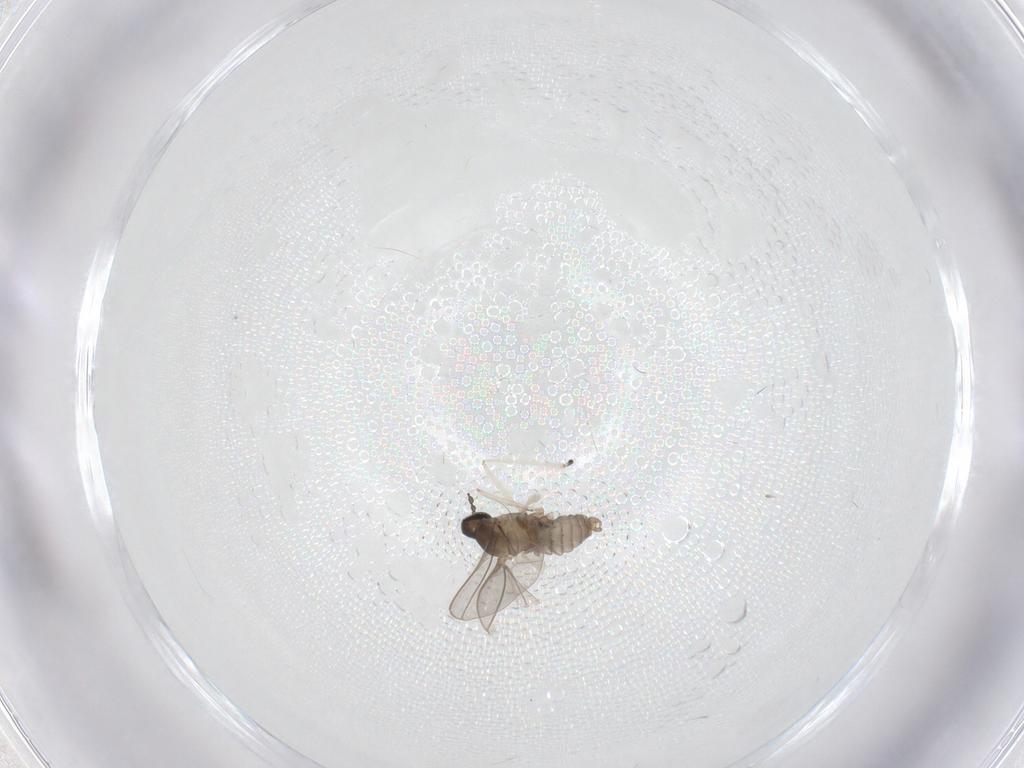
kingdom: Animalia
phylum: Arthropoda
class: Insecta
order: Diptera
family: Cecidomyiidae
